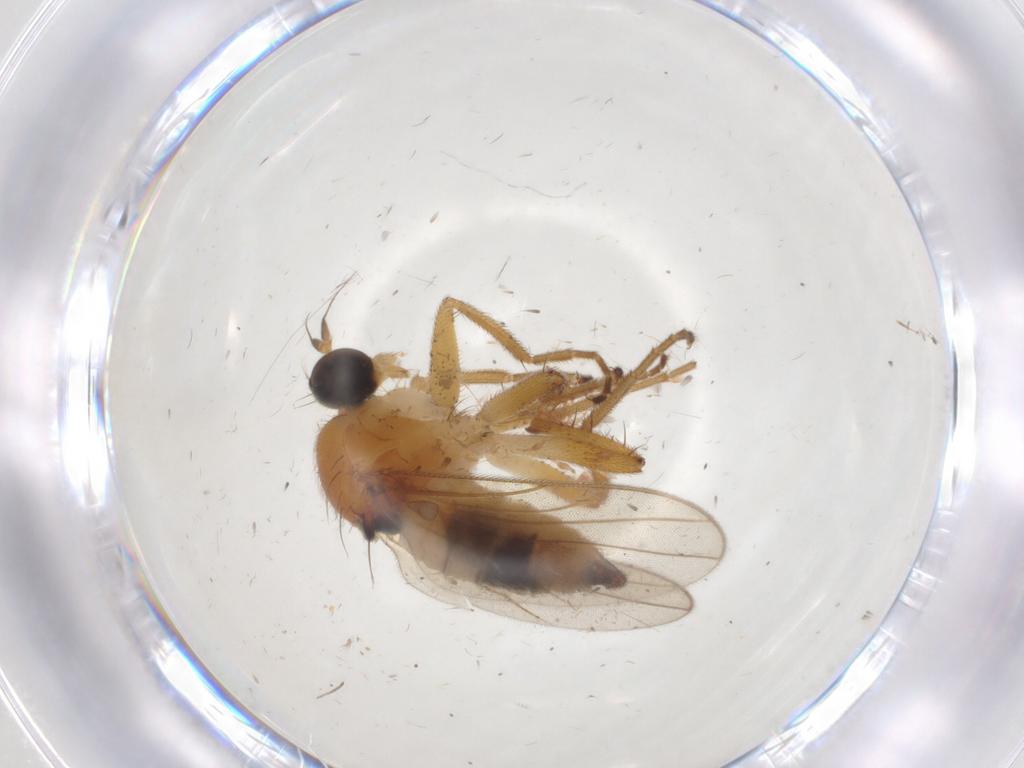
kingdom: Animalia
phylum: Arthropoda
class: Insecta
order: Diptera
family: Hybotidae
